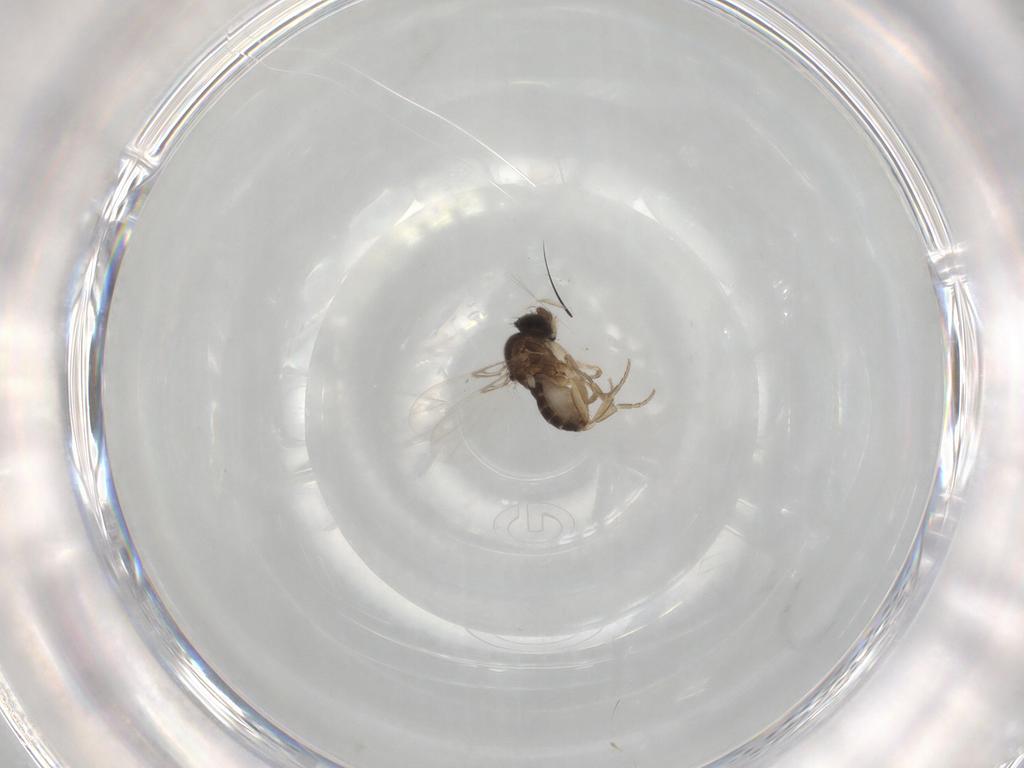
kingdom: Animalia
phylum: Arthropoda
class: Insecta
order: Diptera
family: Phoridae
